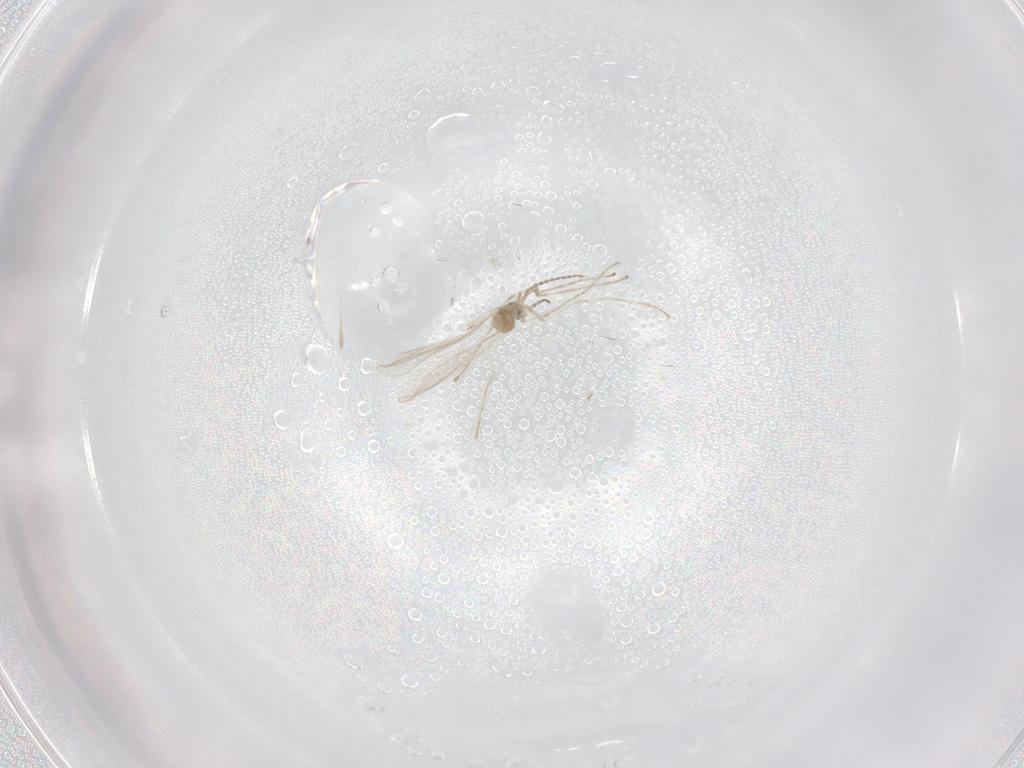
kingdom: Animalia
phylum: Arthropoda
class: Insecta
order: Diptera
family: Cecidomyiidae
